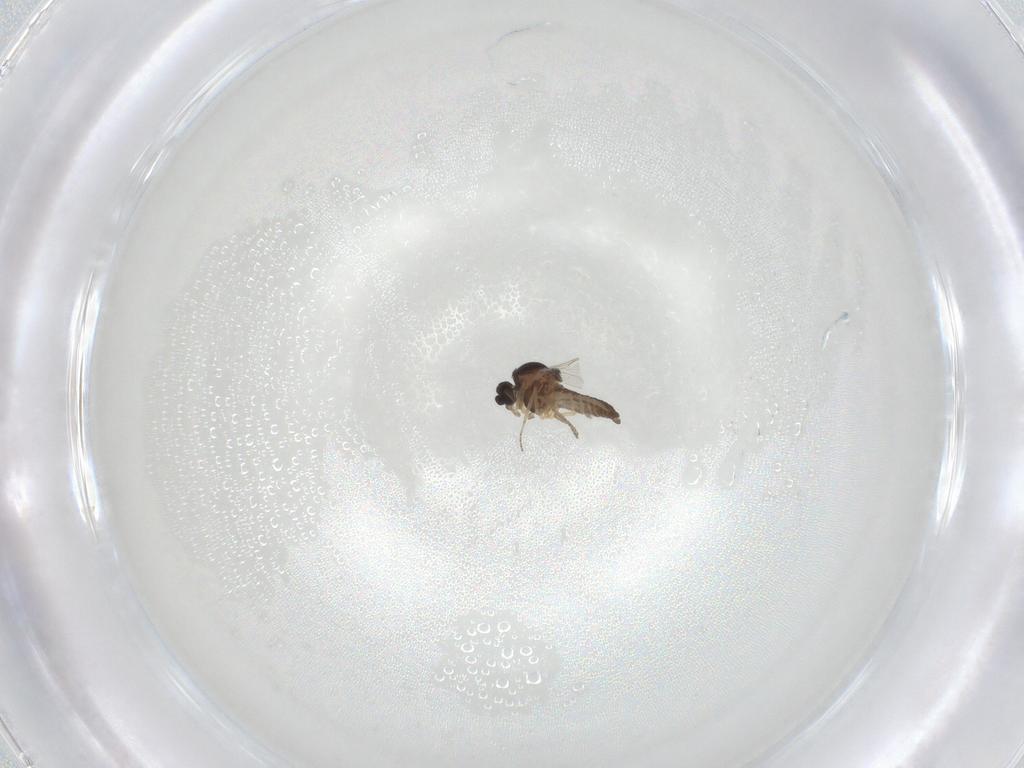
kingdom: Animalia
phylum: Arthropoda
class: Insecta
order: Diptera
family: Ceratopogonidae
